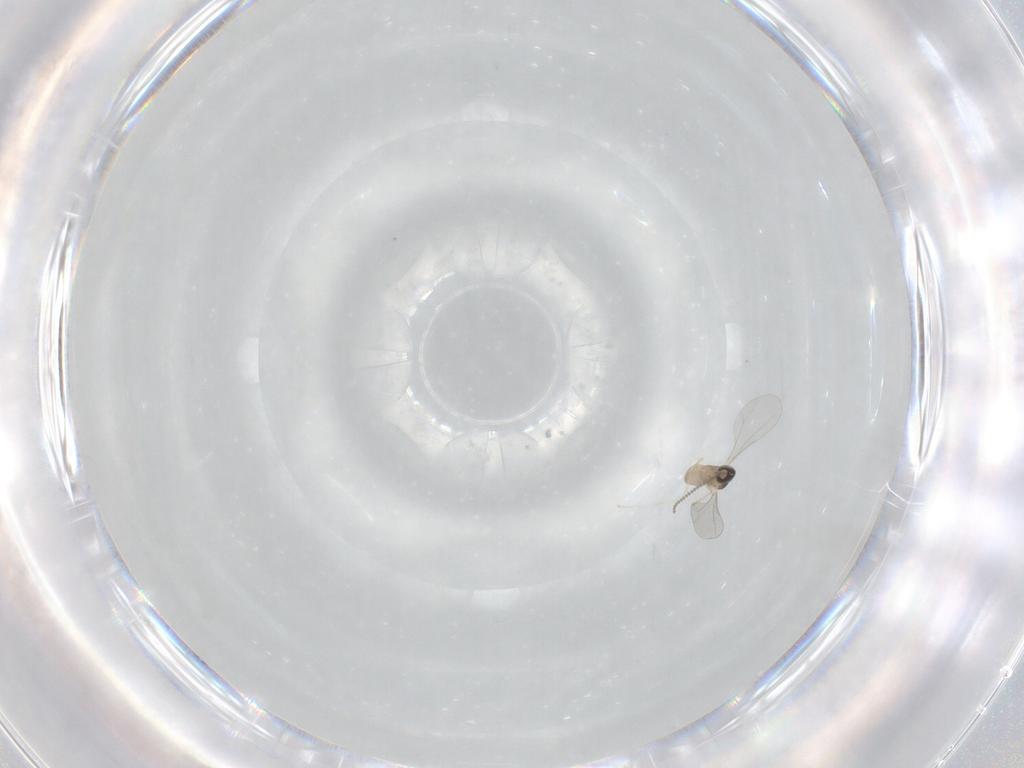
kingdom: Animalia
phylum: Arthropoda
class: Insecta
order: Diptera
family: Cecidomyiidae
